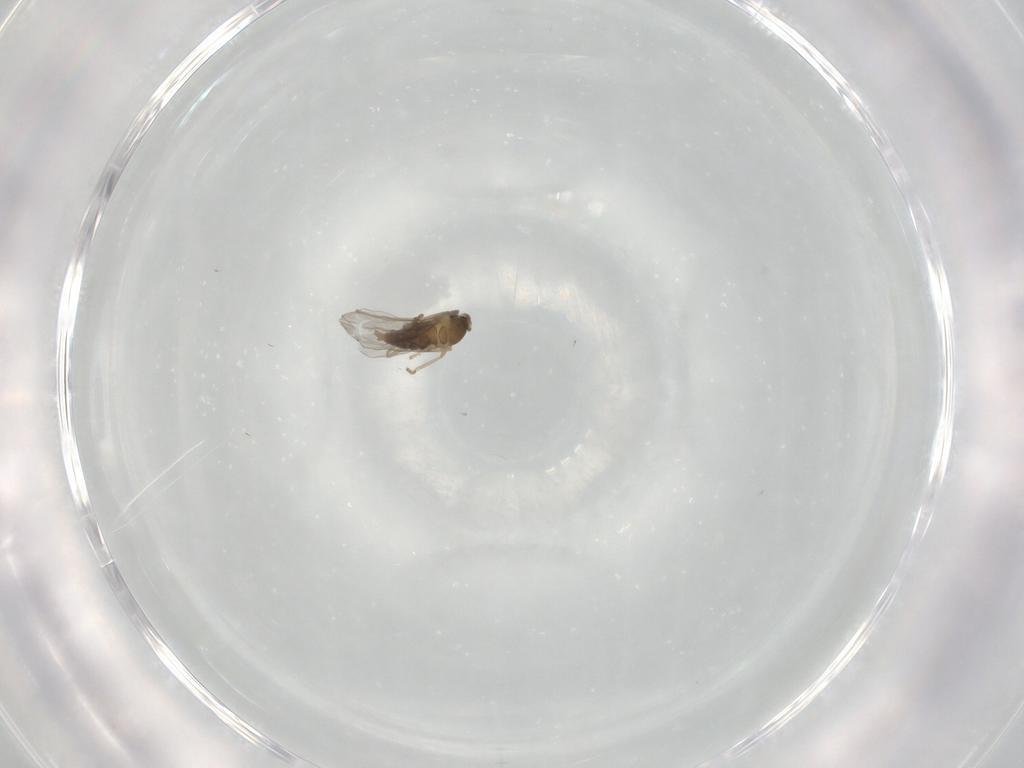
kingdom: Animalia
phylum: Arthropoda
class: Insecta
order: Diptera
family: Cecidomyiidae
